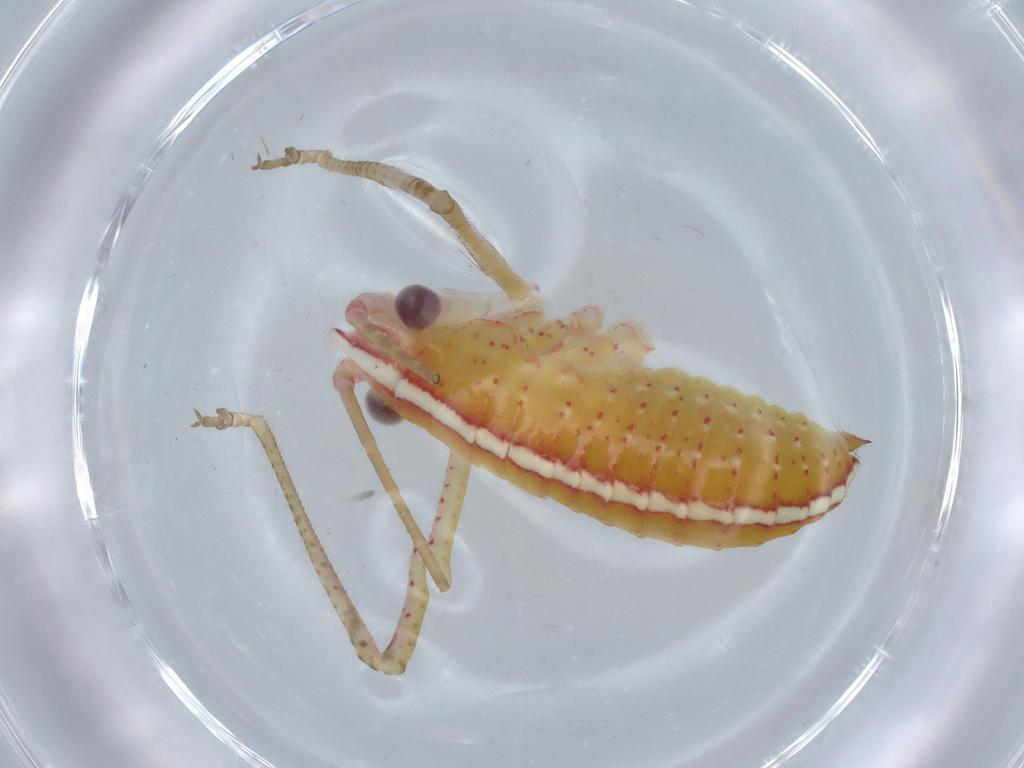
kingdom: Animalia
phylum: Arthropoda
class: Insecta
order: Orthoptera
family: Tettigoniidae
